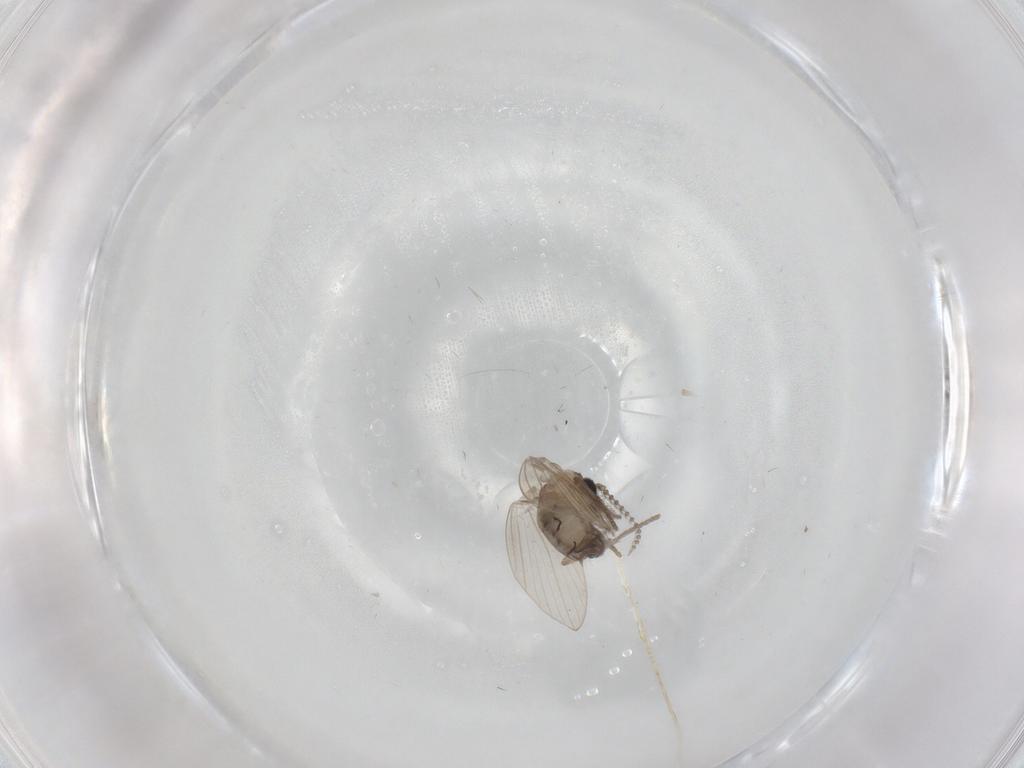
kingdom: Animalia
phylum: Arthropoda
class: Insecta
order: Diptera
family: Psychodidae
